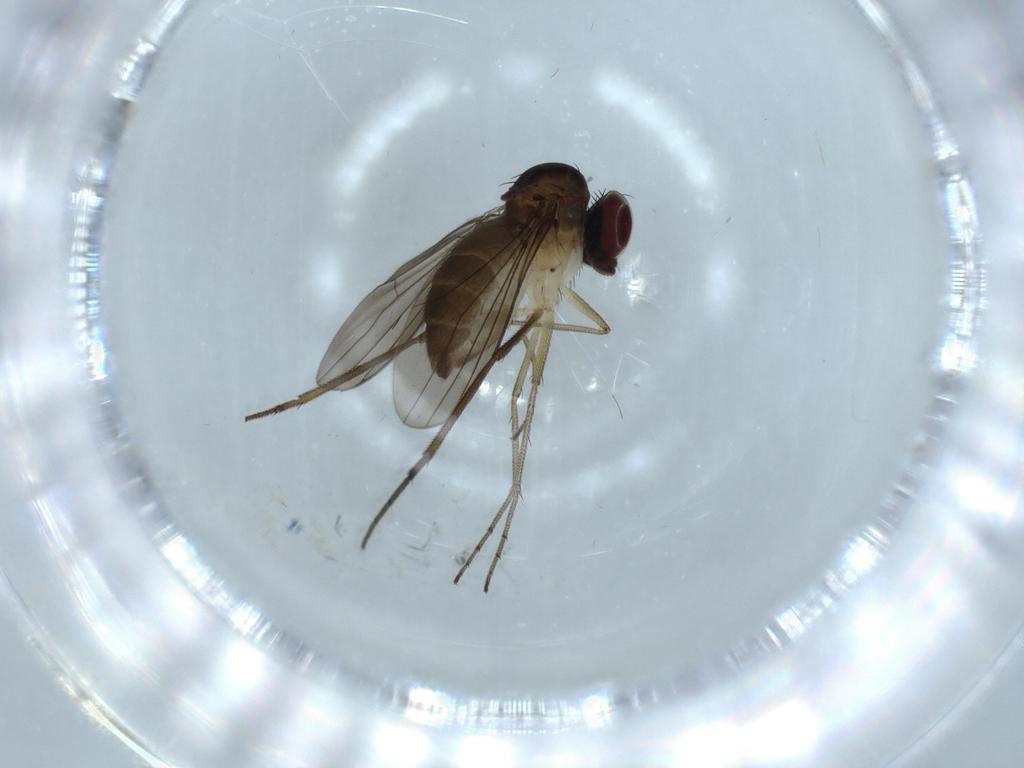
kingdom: Animalia
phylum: Arthropoda
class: Insecta
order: Diptera
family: Dolichopodidae
